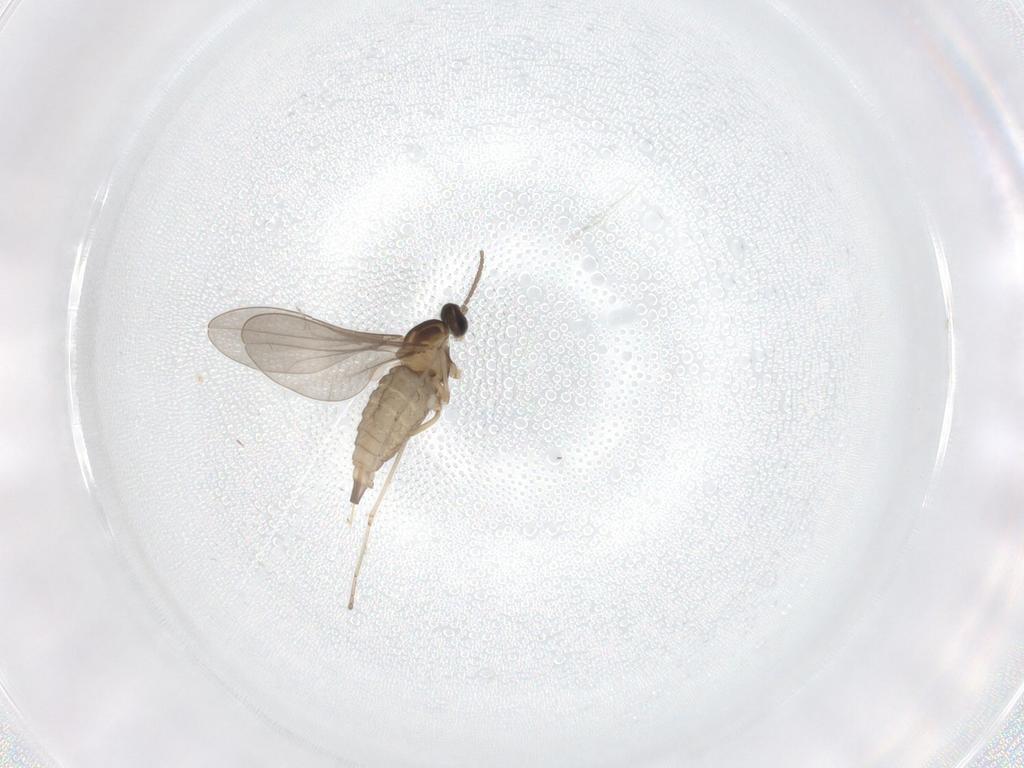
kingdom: Animalia
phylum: Arthropoda
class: Insecta
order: Diptera
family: Cecidomyiidae
